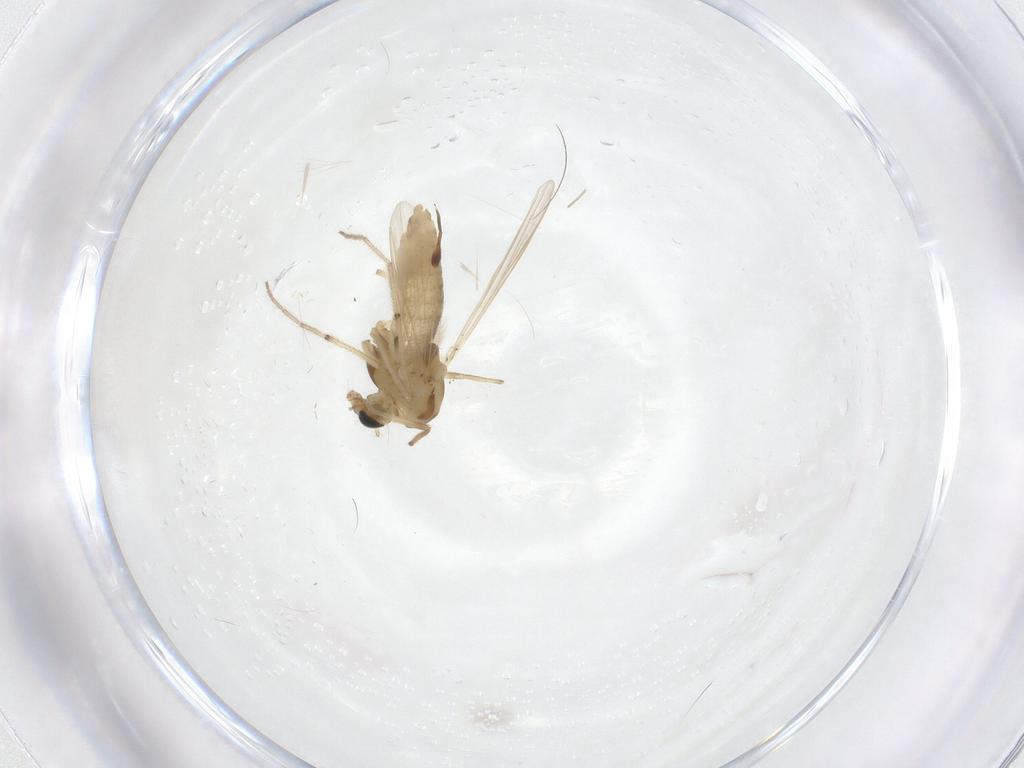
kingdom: Animalia
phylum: Arthropoda
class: Insecta
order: Diptera
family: Chironomidae
